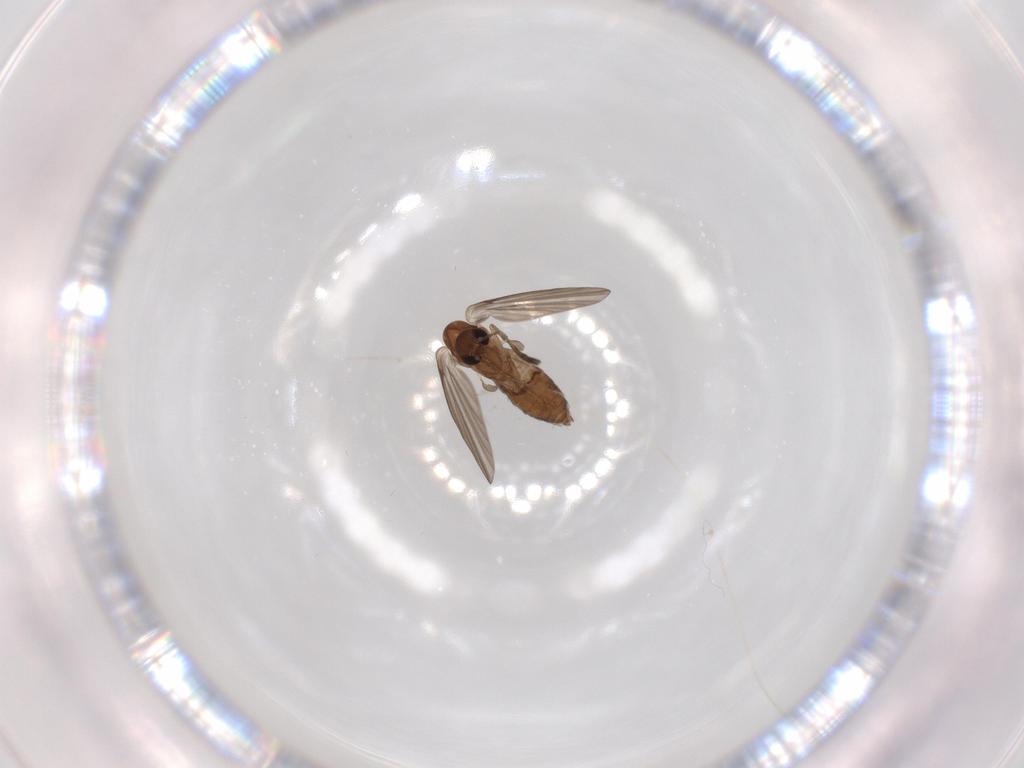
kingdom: Animalia
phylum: Arthropoda
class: Insecta
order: Diptera
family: Psychodidae
